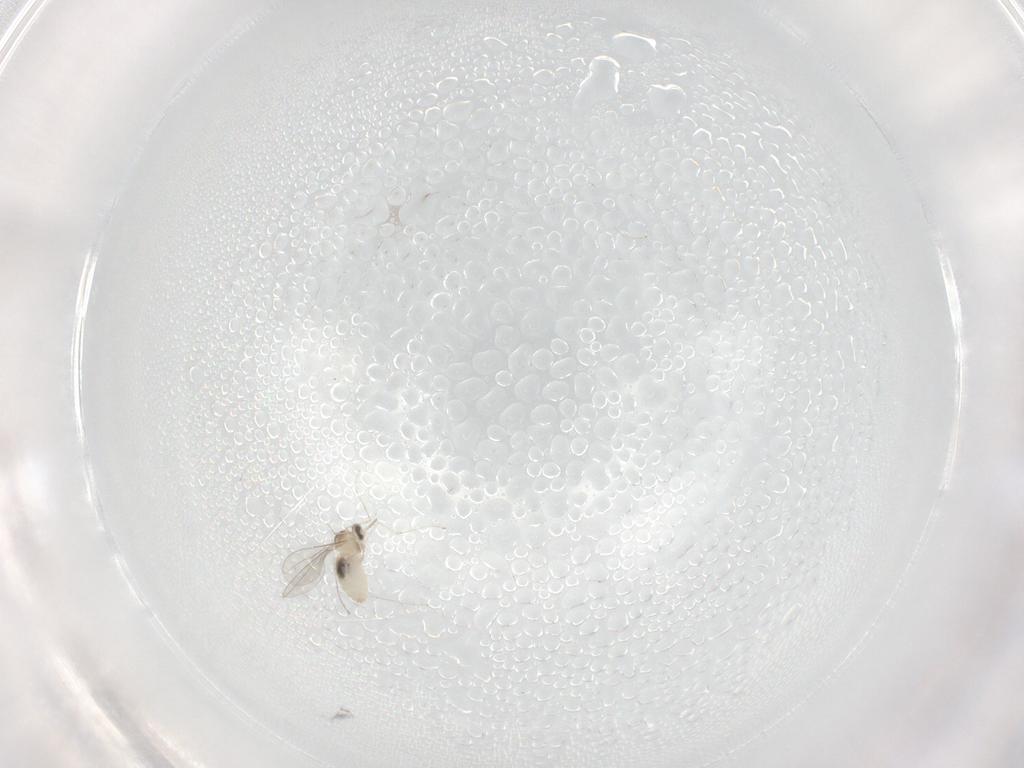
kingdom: Animalia
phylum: Arthropoda
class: Insecta
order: Diptera
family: Cecidomyiidae
